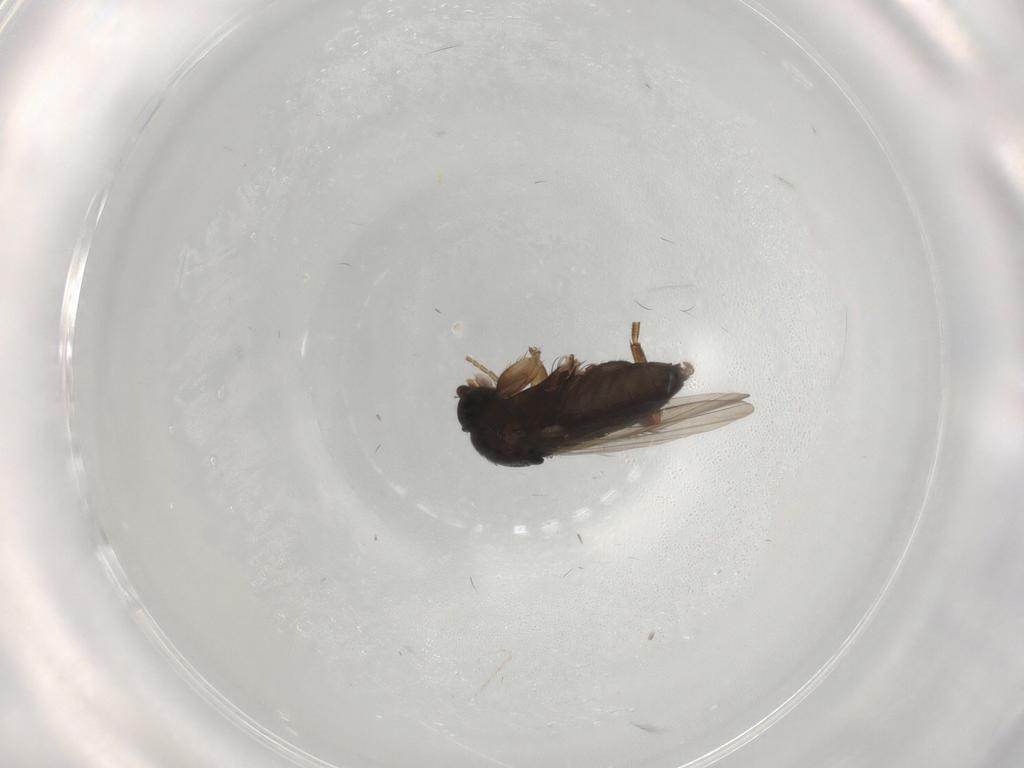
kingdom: Animalia
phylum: Arthropoda
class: Insecta
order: Diptera
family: Phoridae
